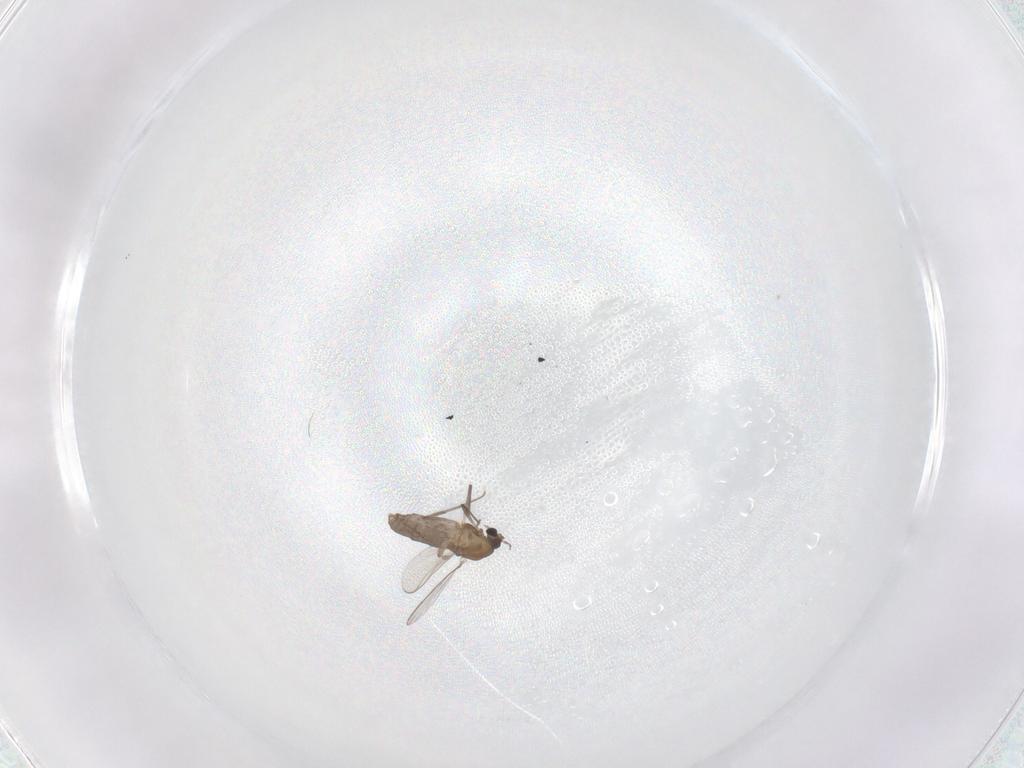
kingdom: Animalia
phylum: Arthropoda
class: Insecta
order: Diptera
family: Chironomidae
